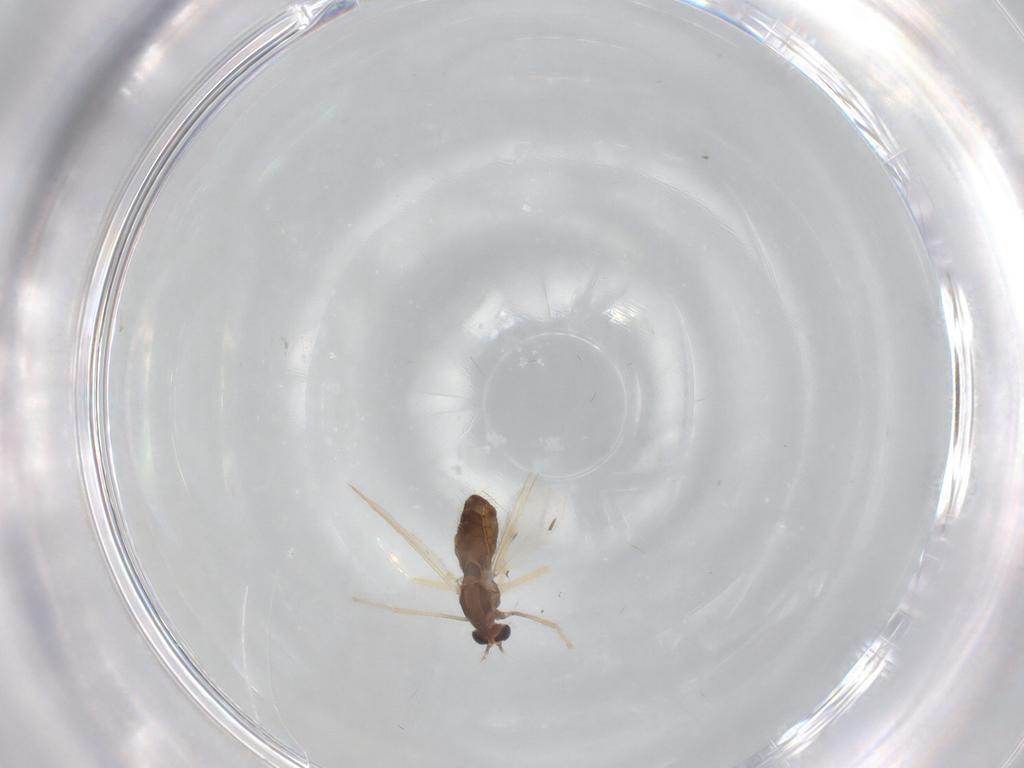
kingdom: Animalia
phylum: Arthropoda
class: Insecta
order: Diptera
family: Chironomidae
